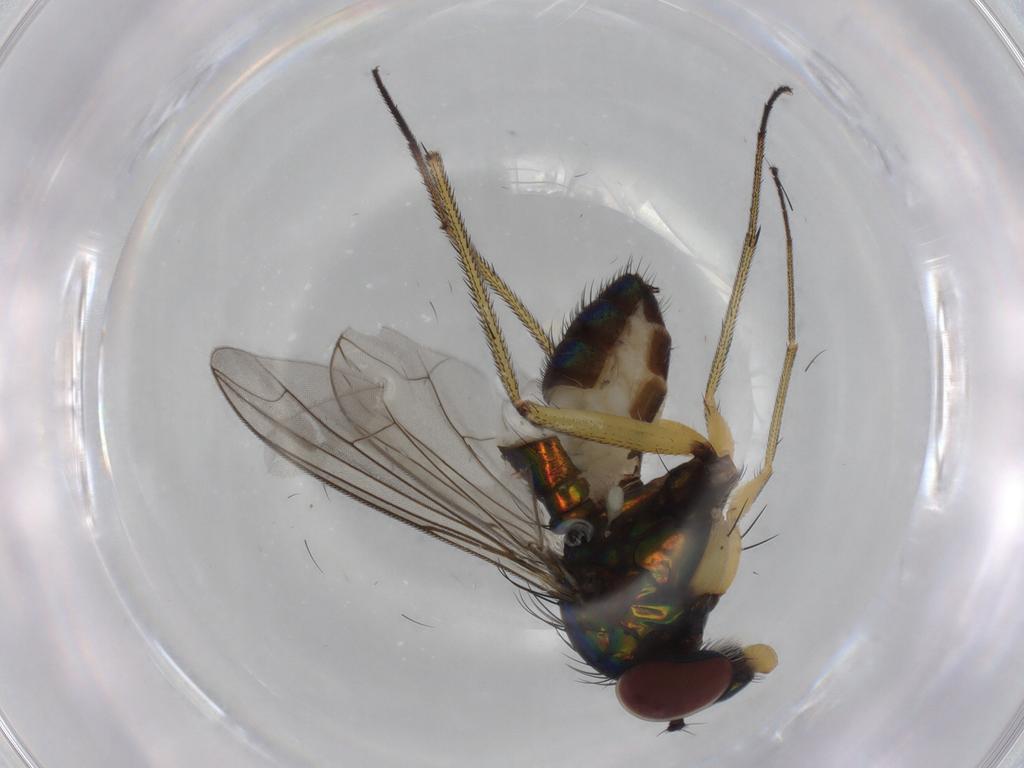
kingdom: Animalia
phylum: Arthropoda
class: Insecta
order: Diptera
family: Dolichopodidae
